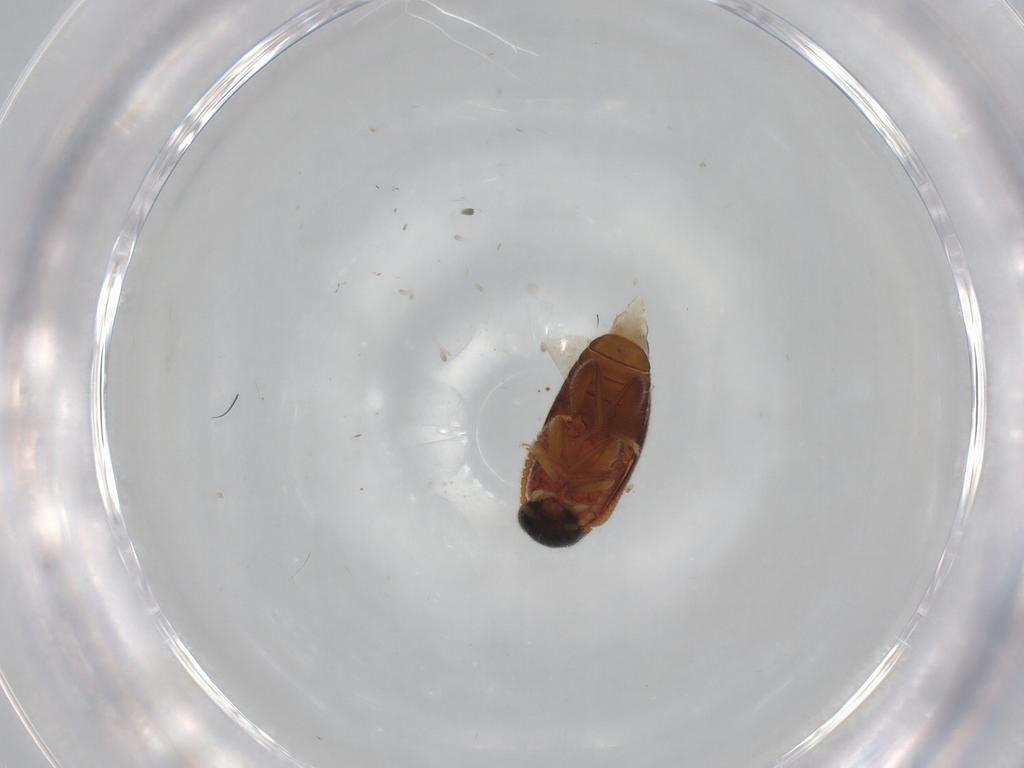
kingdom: Animalia
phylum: Arthropoda
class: Insecta
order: Coleoptera
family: Aderidae
